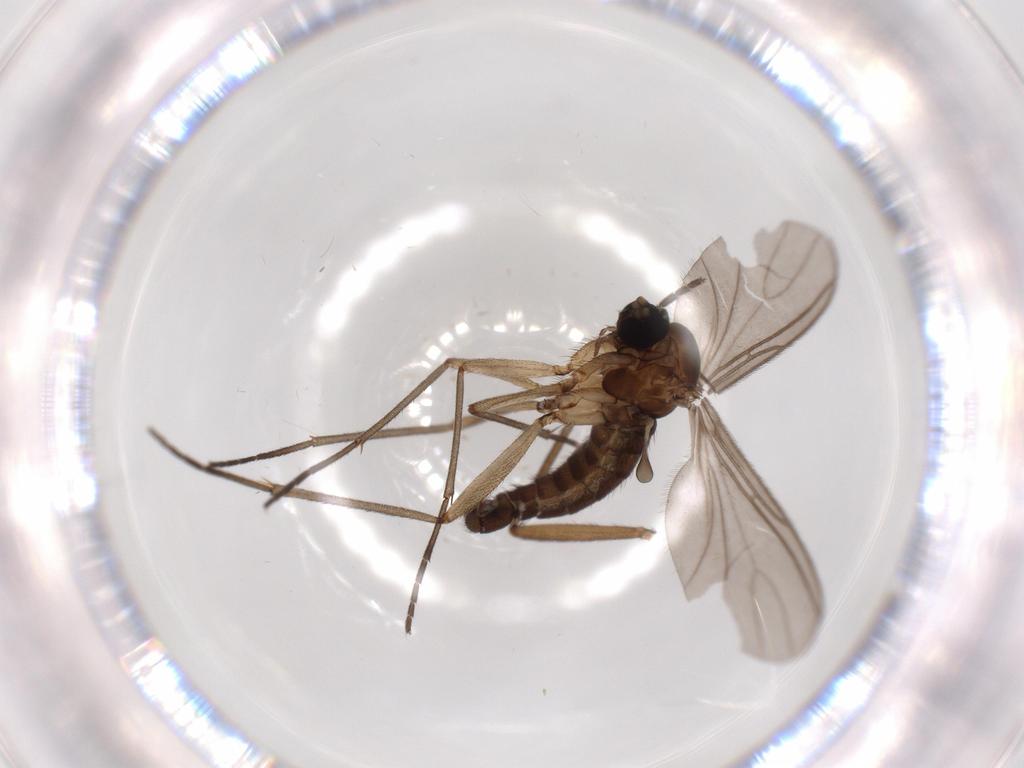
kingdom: Animalia
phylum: Arthropoda
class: Insecta
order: Diptera
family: Sciaridae
